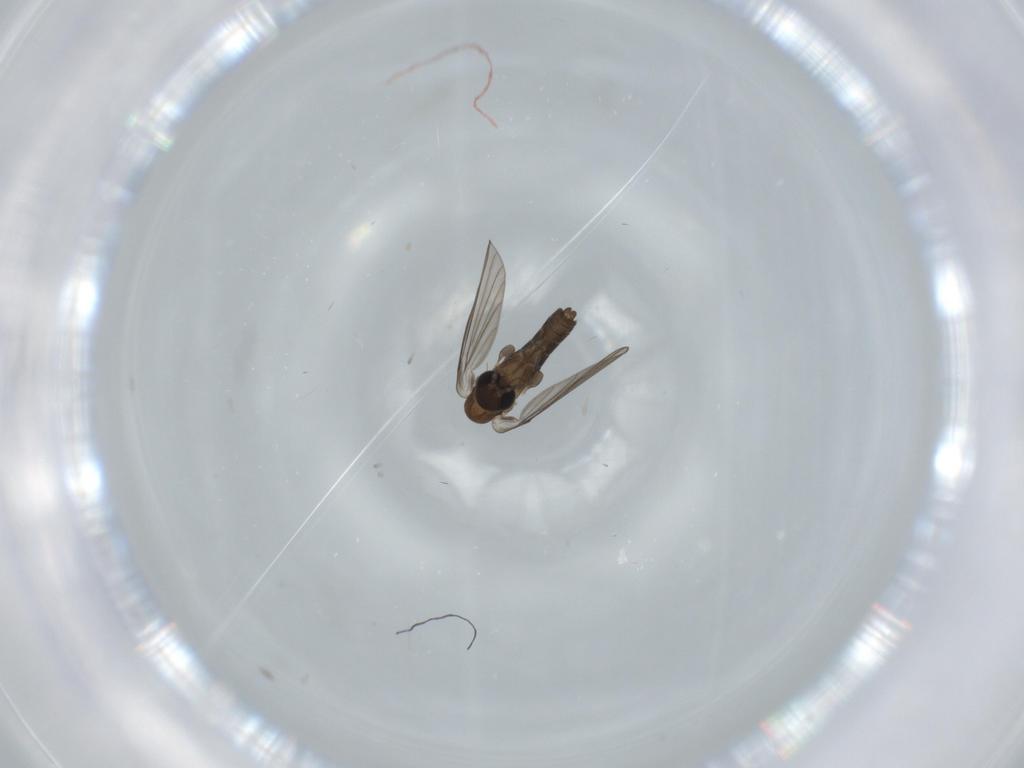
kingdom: Animalia
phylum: Arthropoda
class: Insecta
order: Diptera
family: Psychodidae
